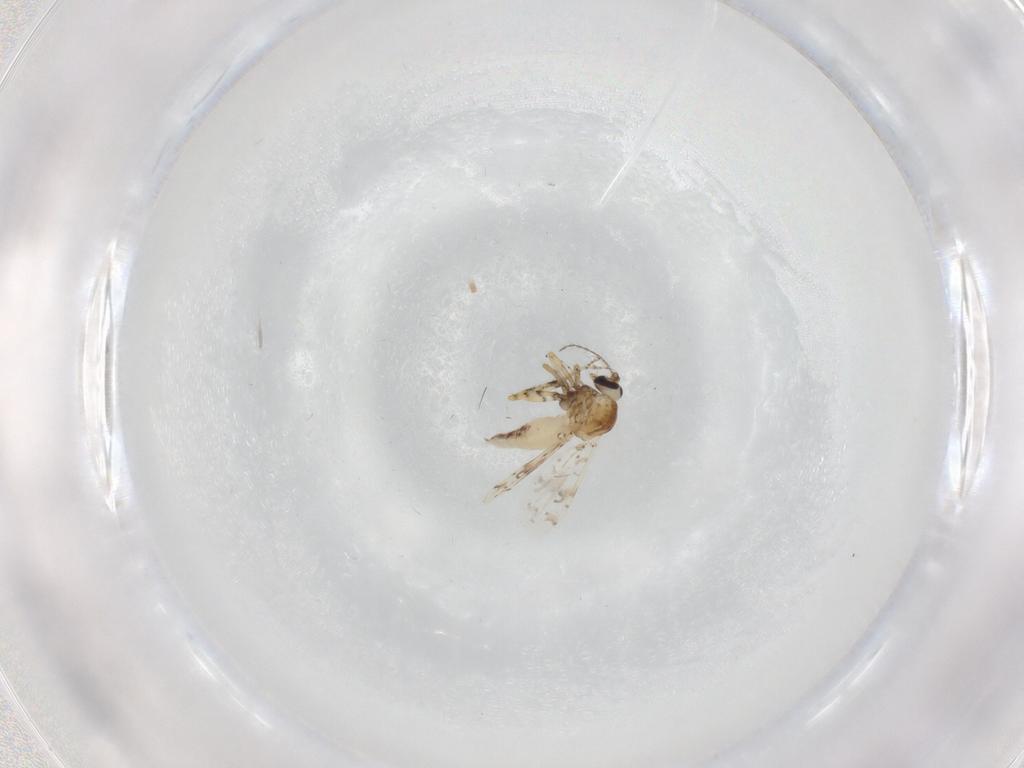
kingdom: Animalia
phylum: Arthropoda
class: Insecta
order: Diptera
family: Ceratopogonidae
